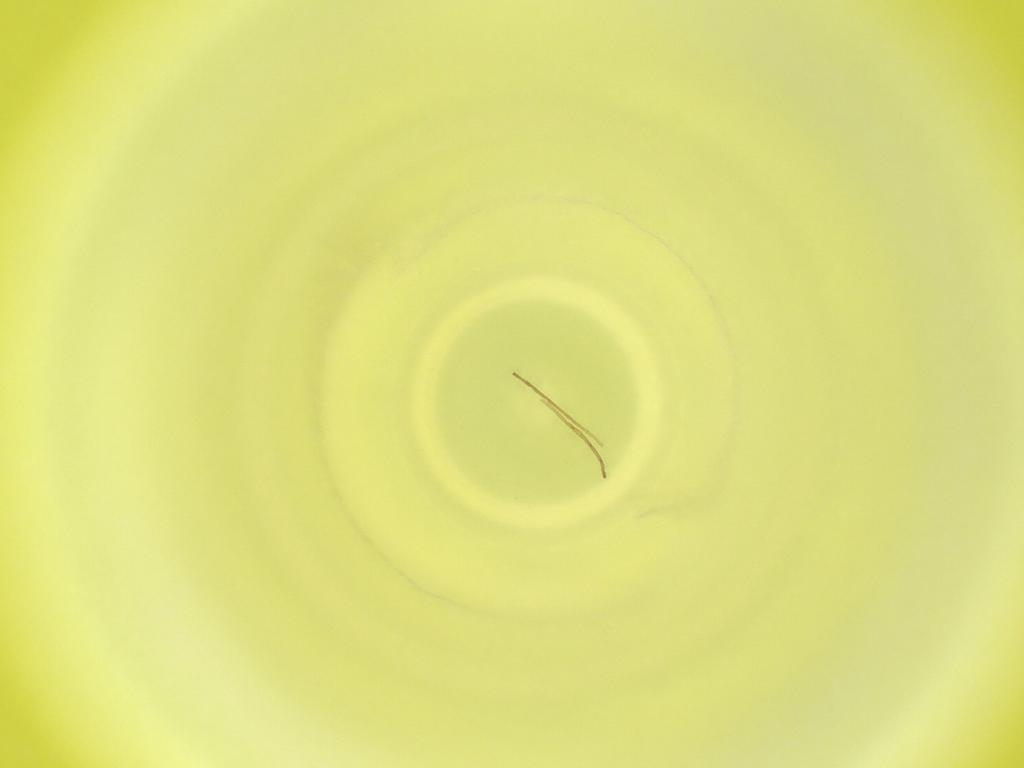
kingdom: Animalia
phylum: Arthropoda
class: Insecta
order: Diptera
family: Cecidomyiidae
